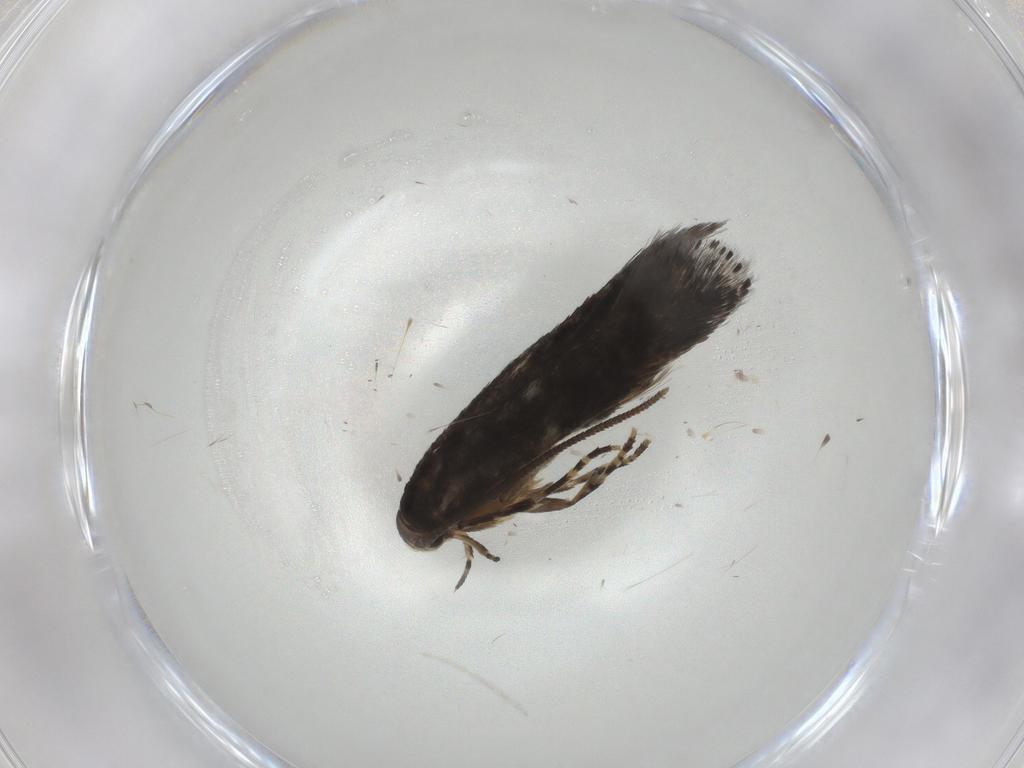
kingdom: Animalia
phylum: Arthropoda
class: Insecta
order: Lepidoptera
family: Elachistidae
